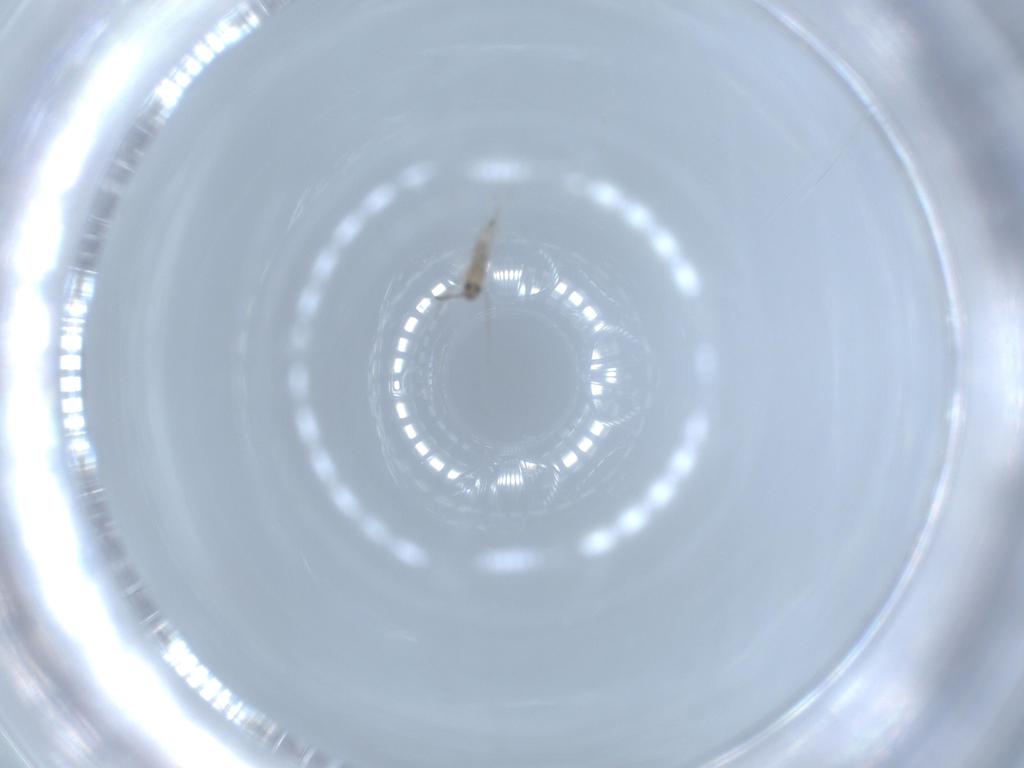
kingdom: Animalia
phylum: Arthropoda
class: Insecta
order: Diptera
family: Cecidomyiidae
